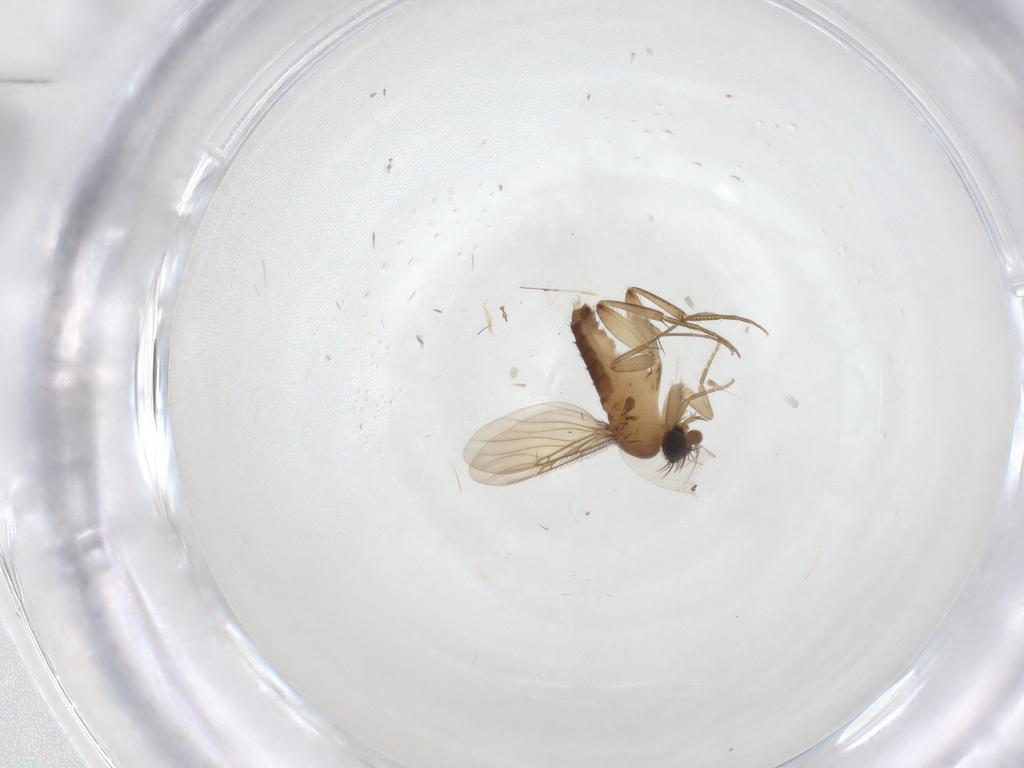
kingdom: Animalia
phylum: Arthropoda
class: Insecta
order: Diptera
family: Phoridae
